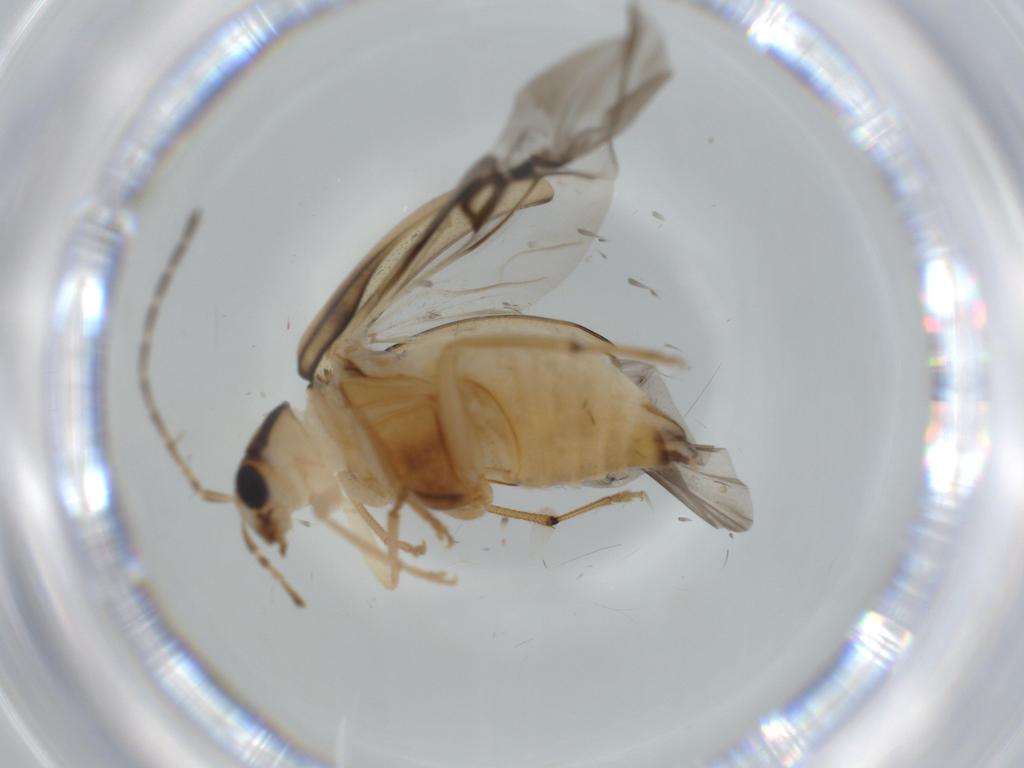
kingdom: Animalia
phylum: Arthropoda
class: Insecta
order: Coleoptera
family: Chrysomelidae
